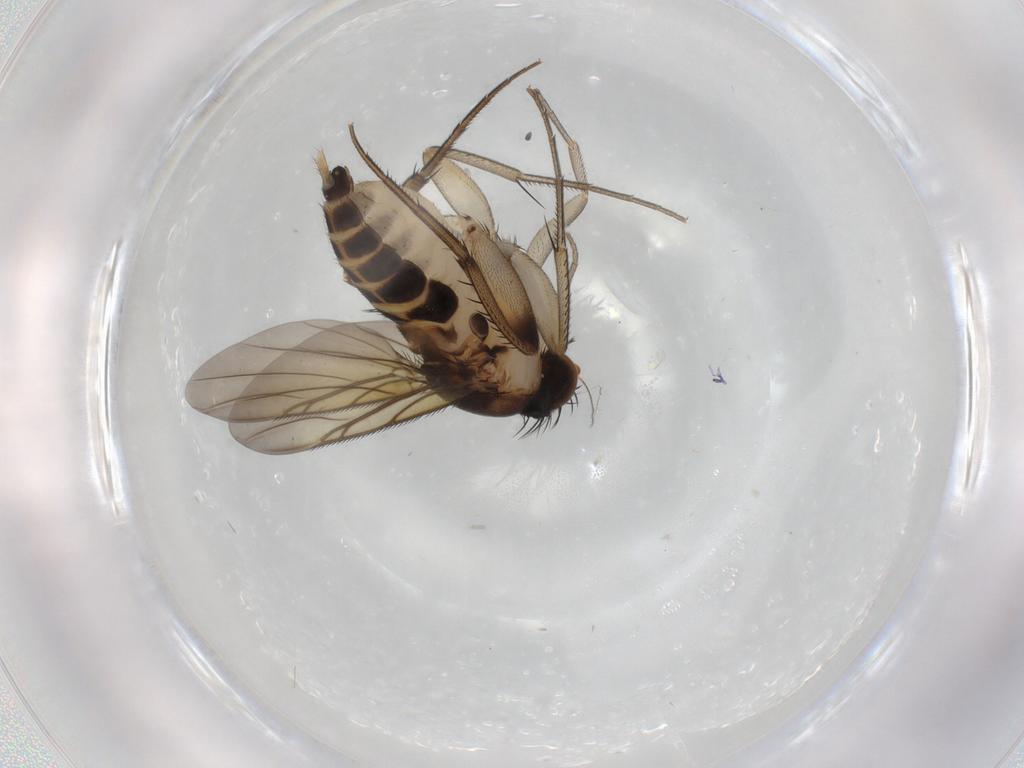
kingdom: Animalia
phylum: Arthropoda
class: Insecta
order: Diptera
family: Phoridae
